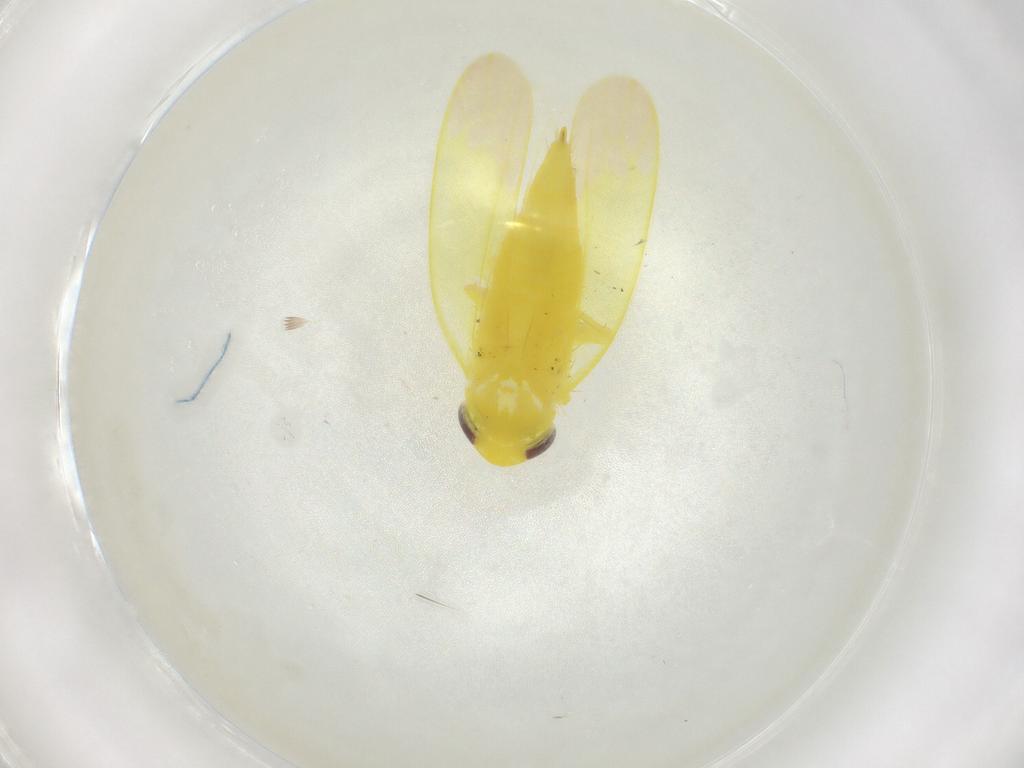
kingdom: Animalia
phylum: Arthropoda
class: Insecta
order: Hemiptera
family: Cicadellidae
